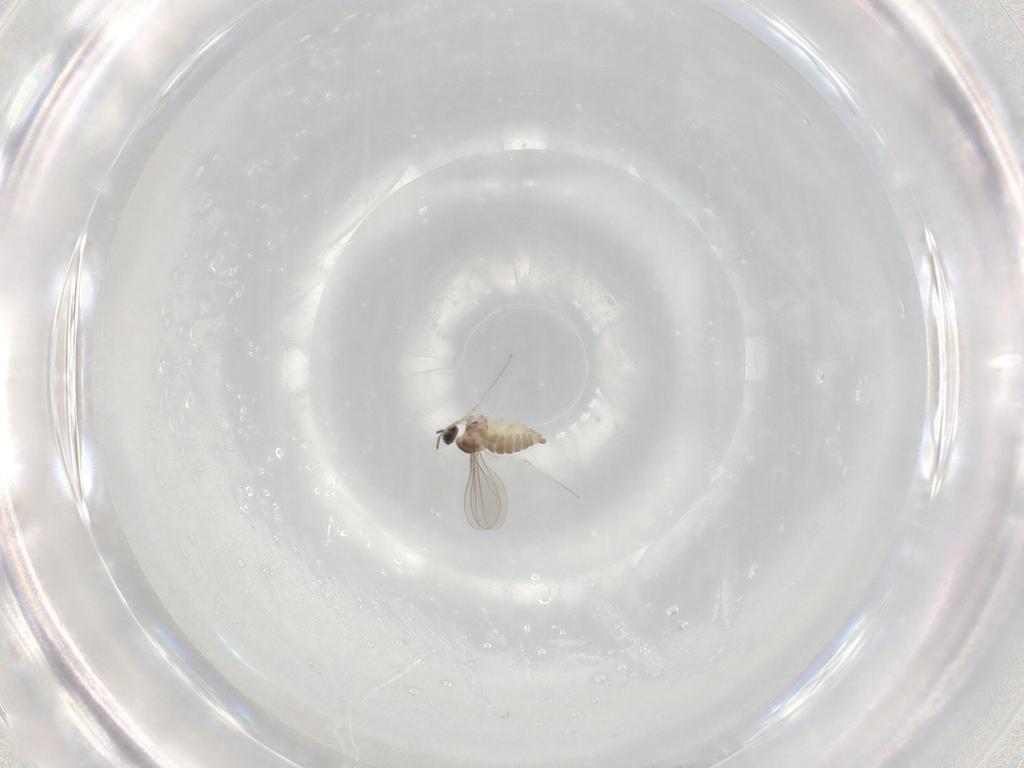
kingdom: Animalia
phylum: Arthropoda
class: Insecta
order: Diptera
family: Cecidomyiidae
